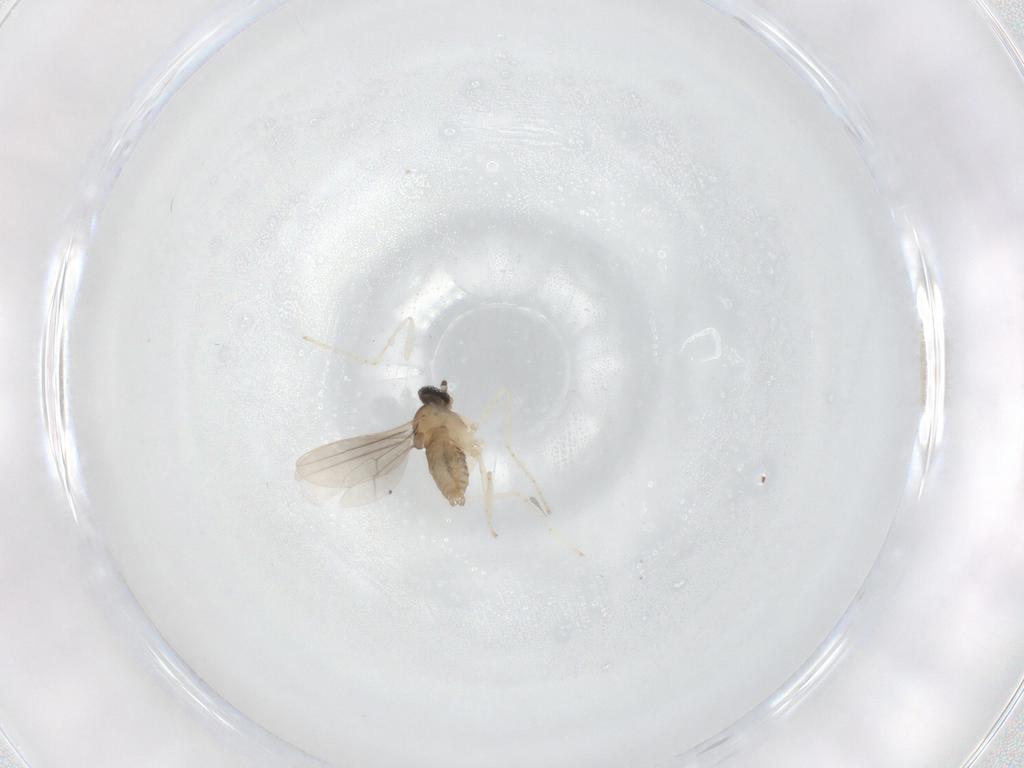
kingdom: Animalia
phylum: Arthropoda
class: Insecta
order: Diptera
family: Cecidomyiidae
